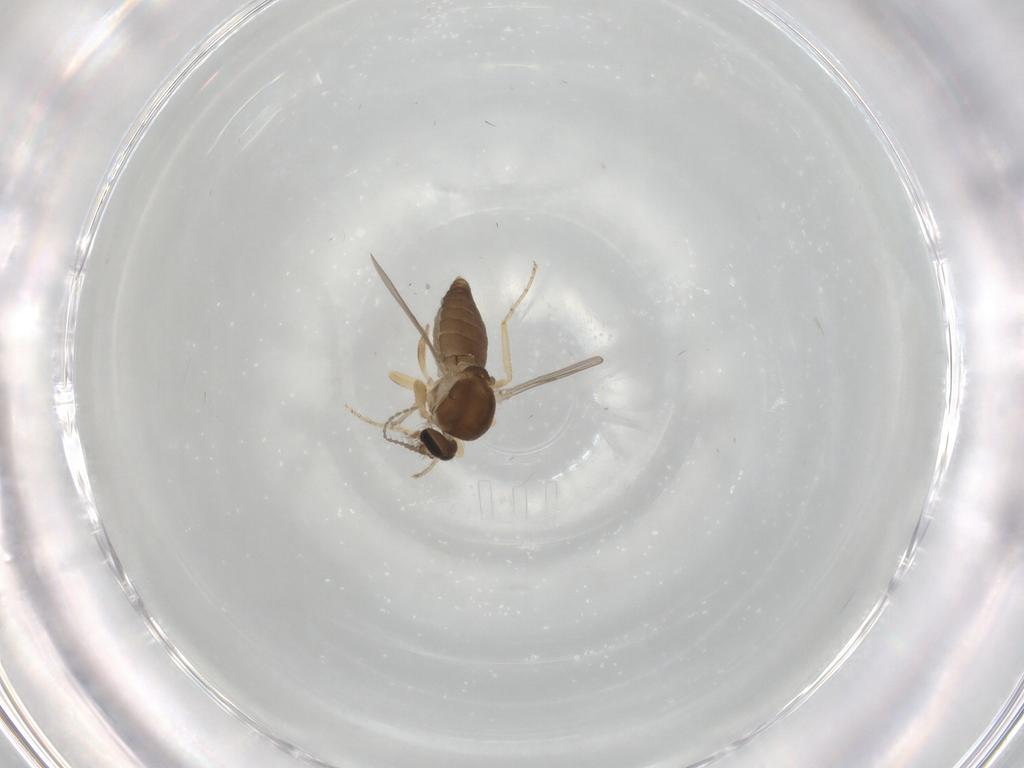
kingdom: Animalia
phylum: Arthropoda
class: Insecta
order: Diptera
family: Ceratopogonidae
